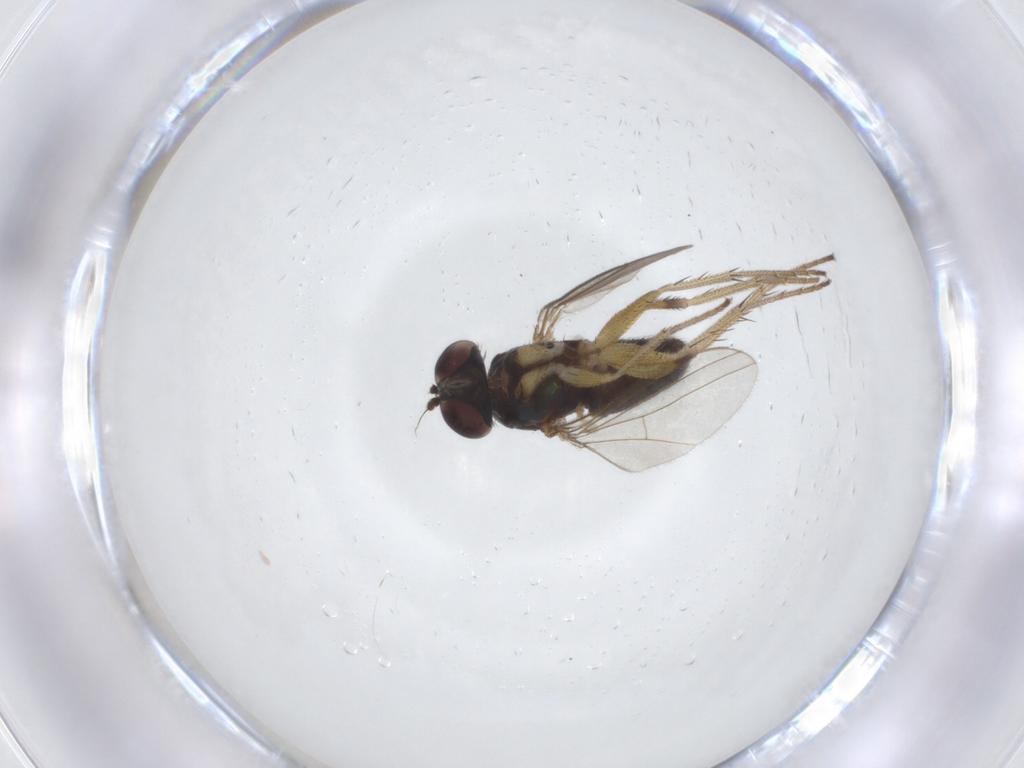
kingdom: Animalia
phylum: Arthropoda
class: Insecta
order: Diptera
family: Dolichopodidae
